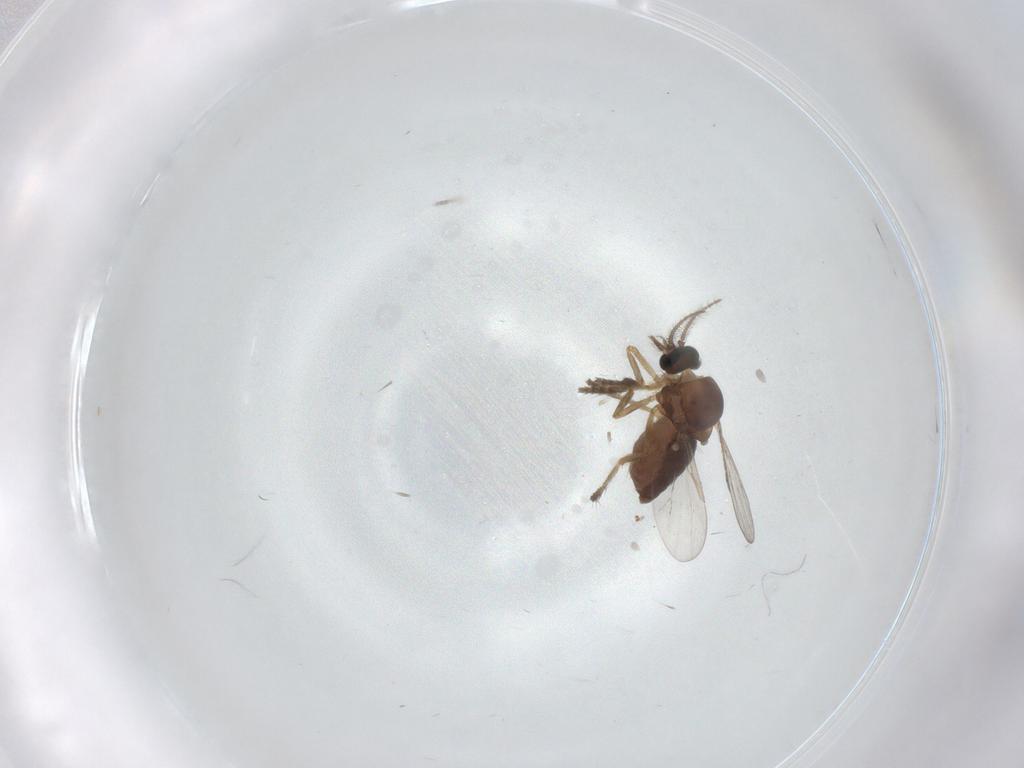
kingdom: Animalia
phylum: Arthropoda
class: Insecta
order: Diptera
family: Ceratopogonidae
